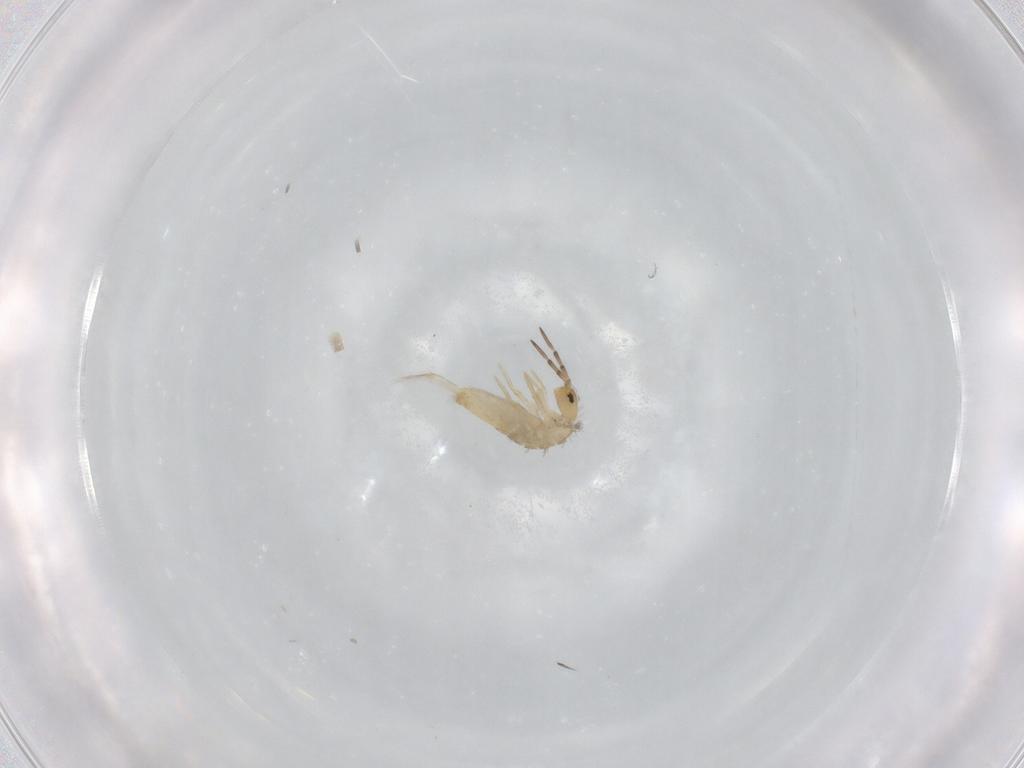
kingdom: Animalia
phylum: Arthropoda
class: Collembola
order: Entomobryomorpha
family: Entomobryidae
